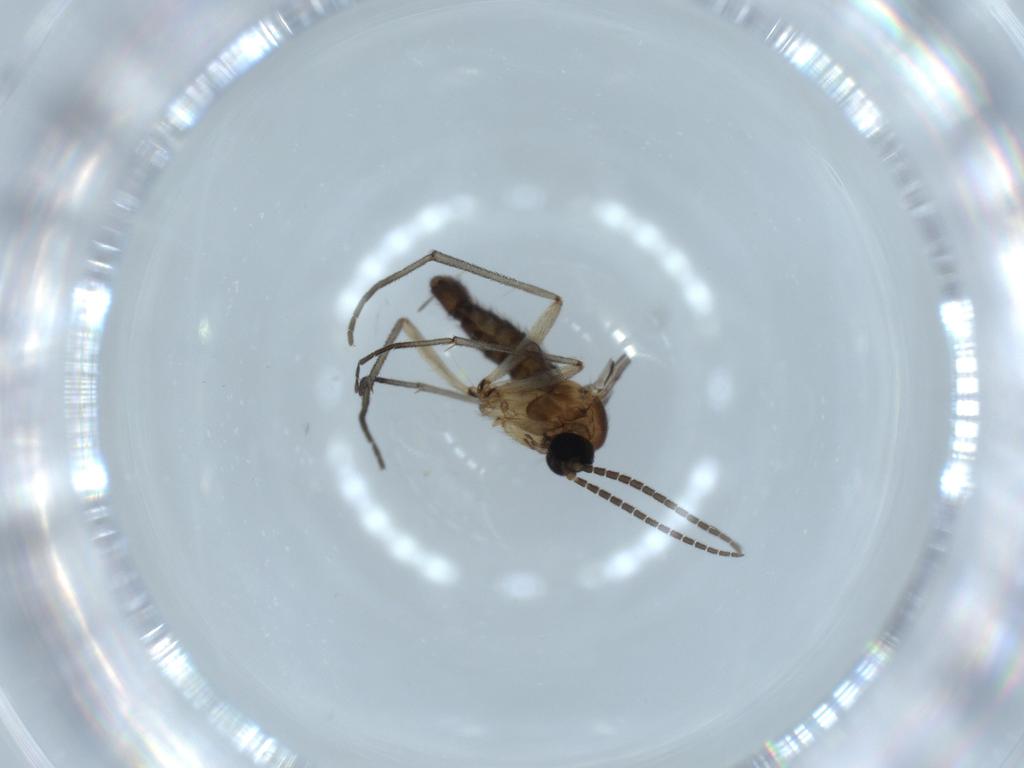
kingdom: Animalia
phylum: Arthropoda
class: Insecta
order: Diptera
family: Sciaridae
